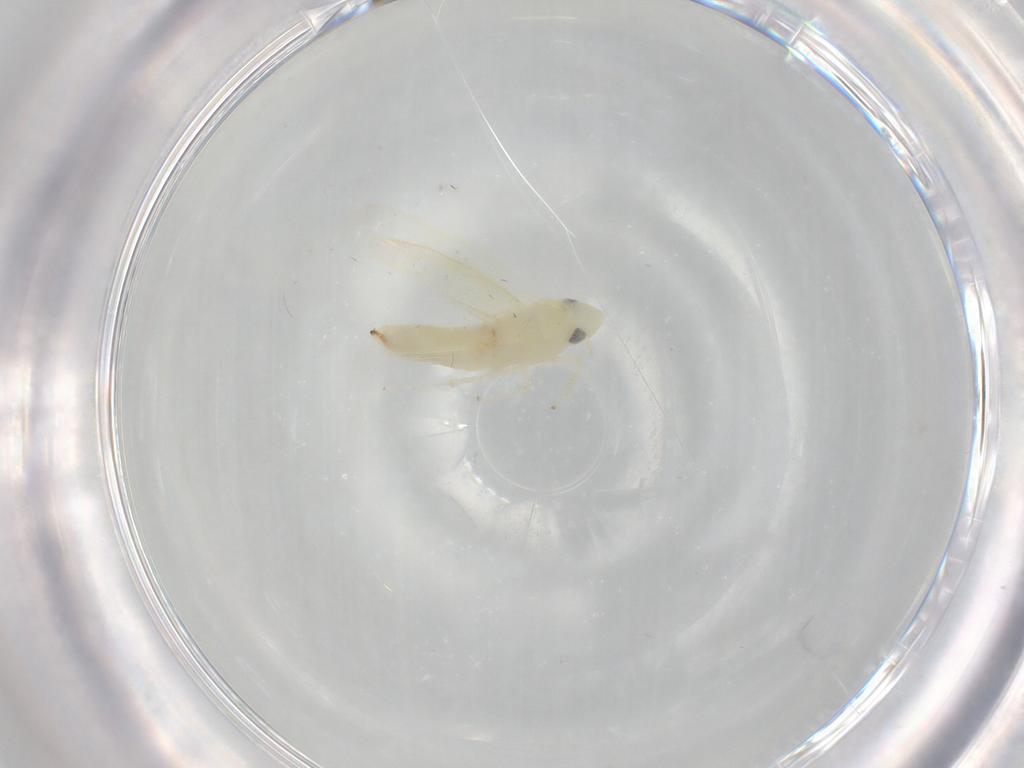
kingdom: Animalia
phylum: Arthropoda
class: Insecta
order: Hemiptera
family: Cicadellidae
